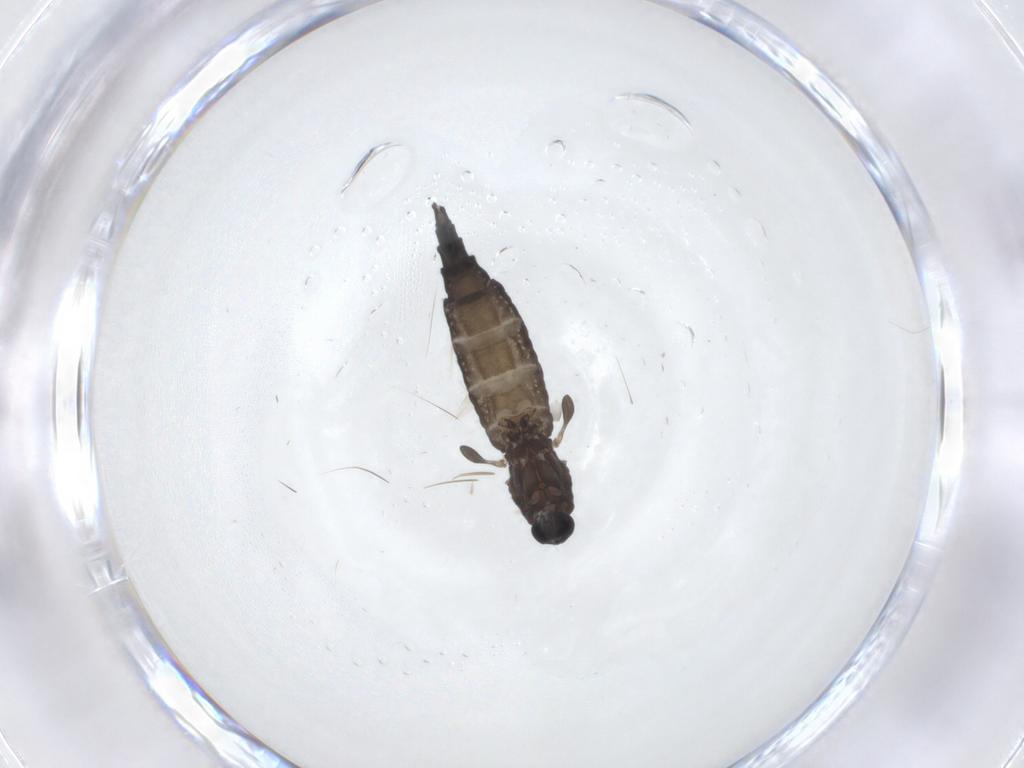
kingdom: Animalia
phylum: Arthropoda
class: Insecta
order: Diptera
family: Sciaridae
